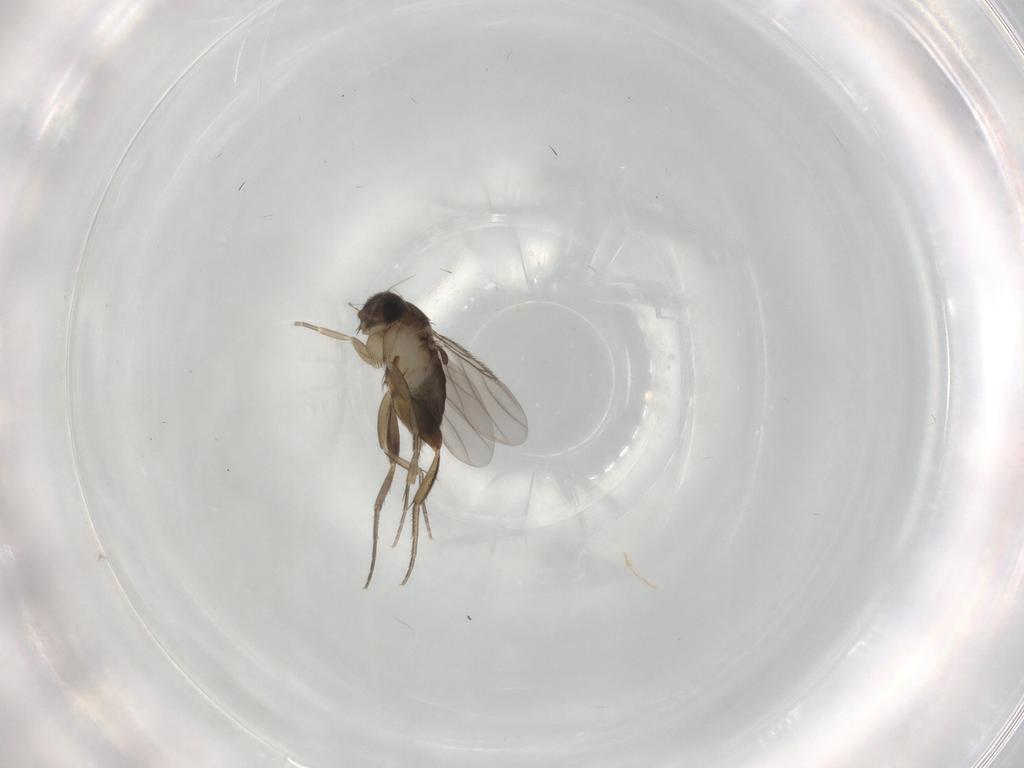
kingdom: Animalia
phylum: Arthropoda
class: Insecta
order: Diptera
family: Phoridae
